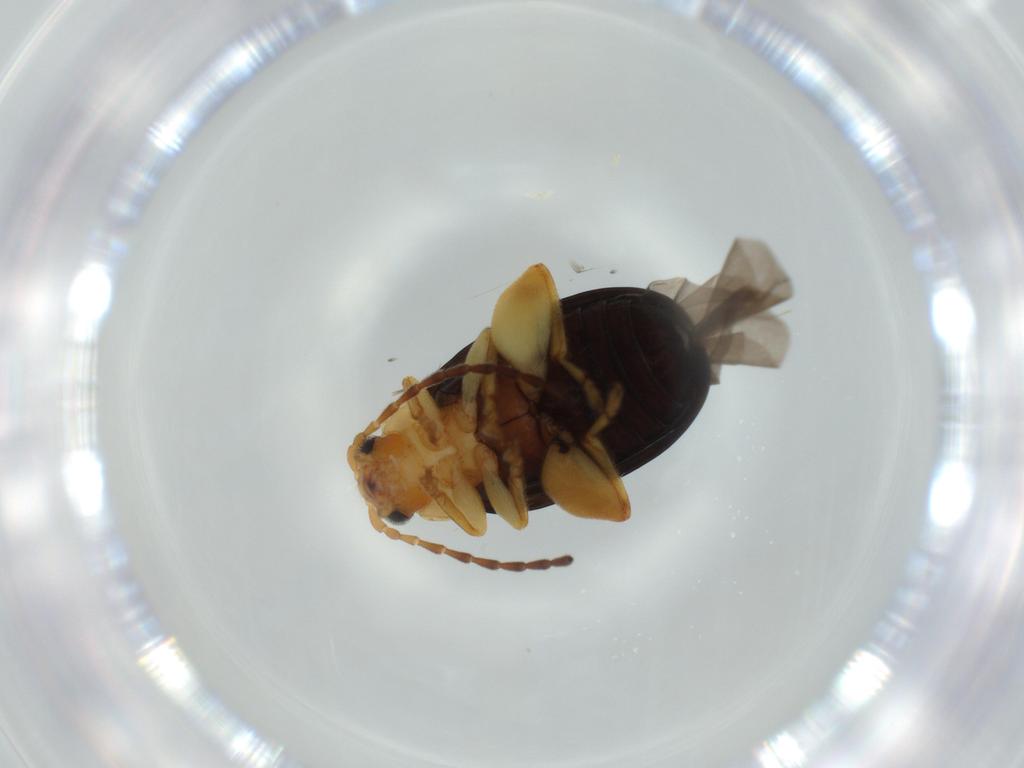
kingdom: Animalia
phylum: Arthropoda
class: Insecta
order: Coleoptera
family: Chrysomelidae
